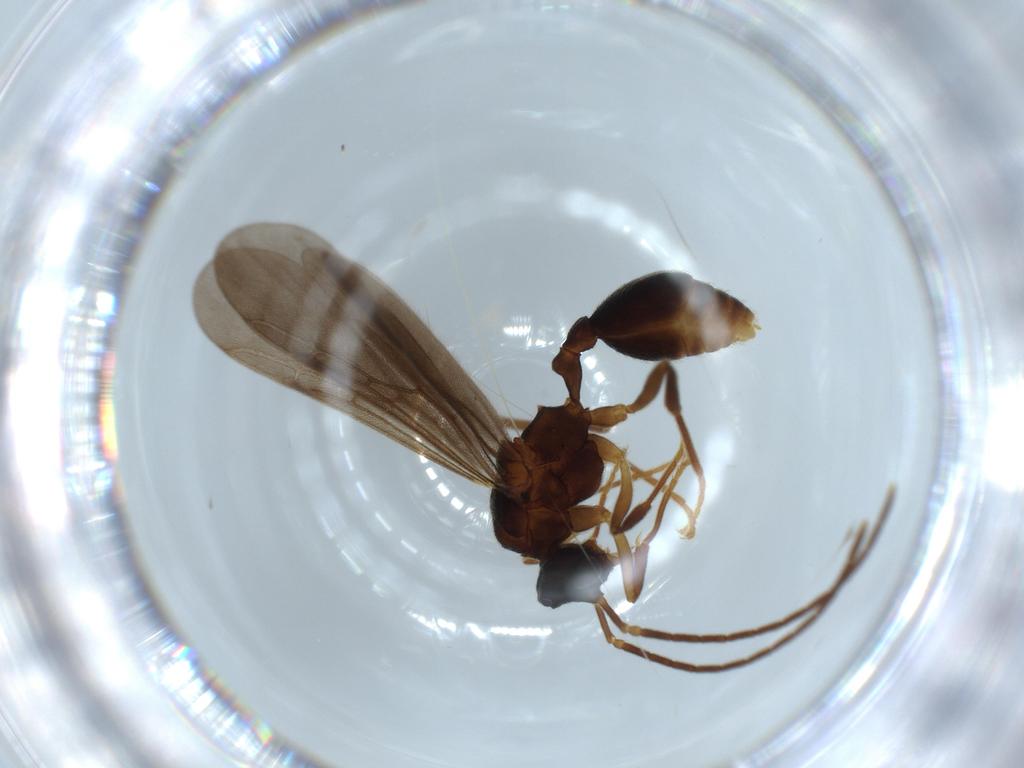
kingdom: Animalia
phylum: Arthropoda
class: Insecta
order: Hymenoptera
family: Formicidae
